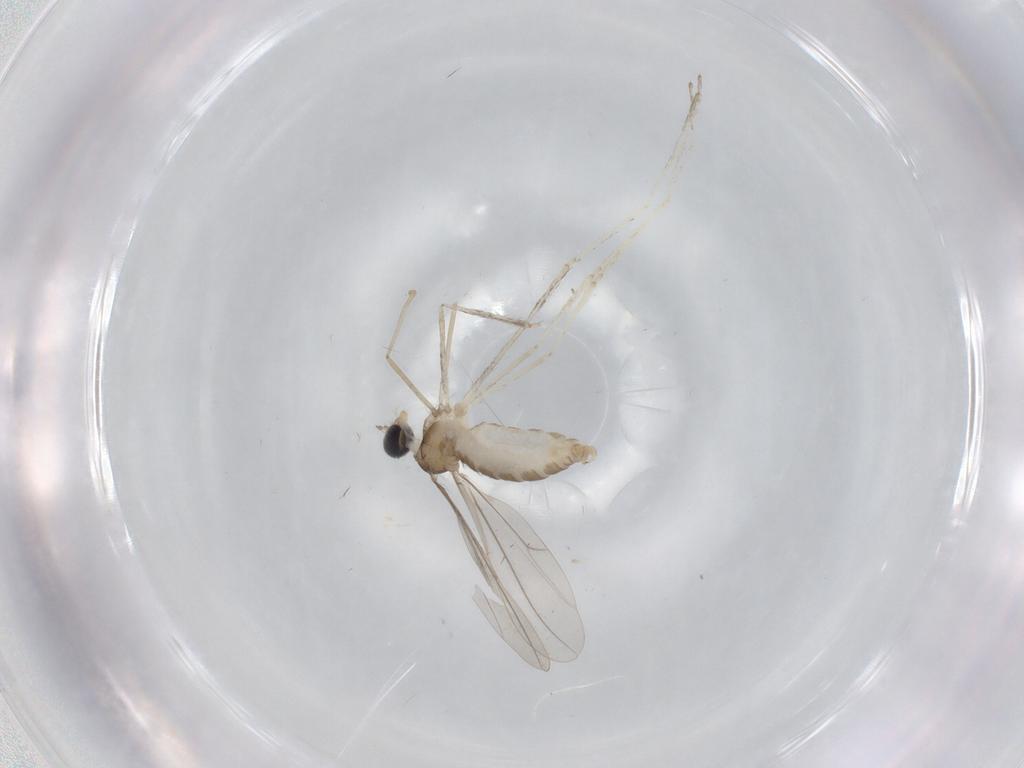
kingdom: Animalia
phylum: Arthropoda
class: Insecta
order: Diptera
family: Cecidomyiidae
